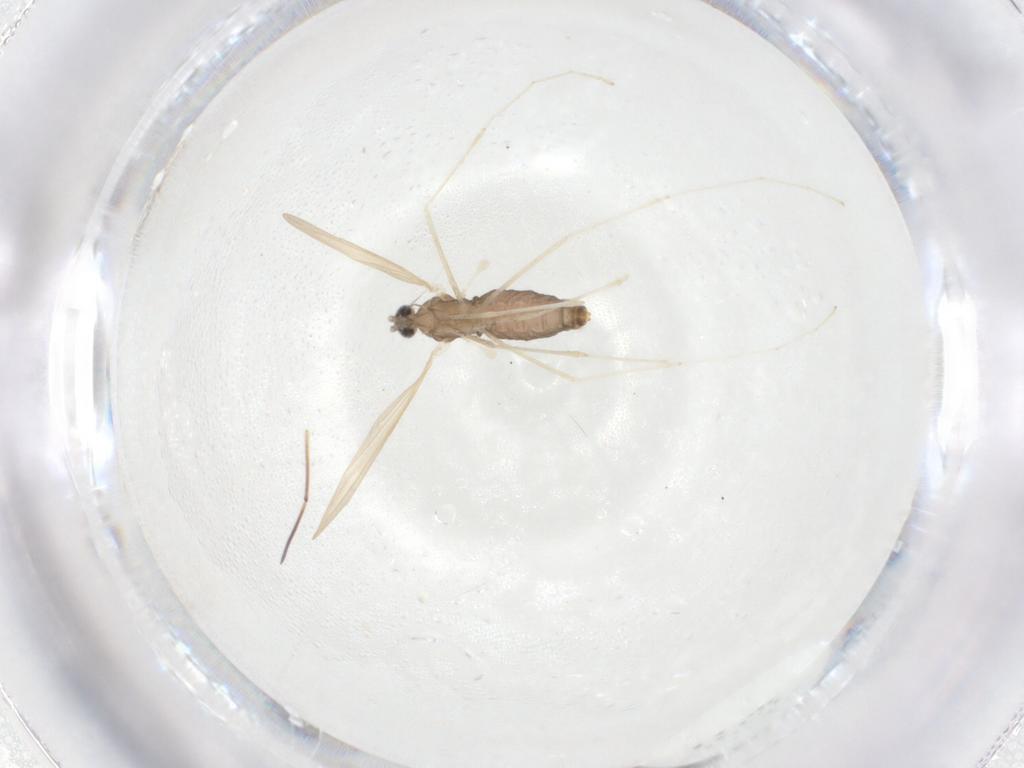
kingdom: Animalia
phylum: Arthropoda
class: Insecta
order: Diptera
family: Cecidomyiidae
